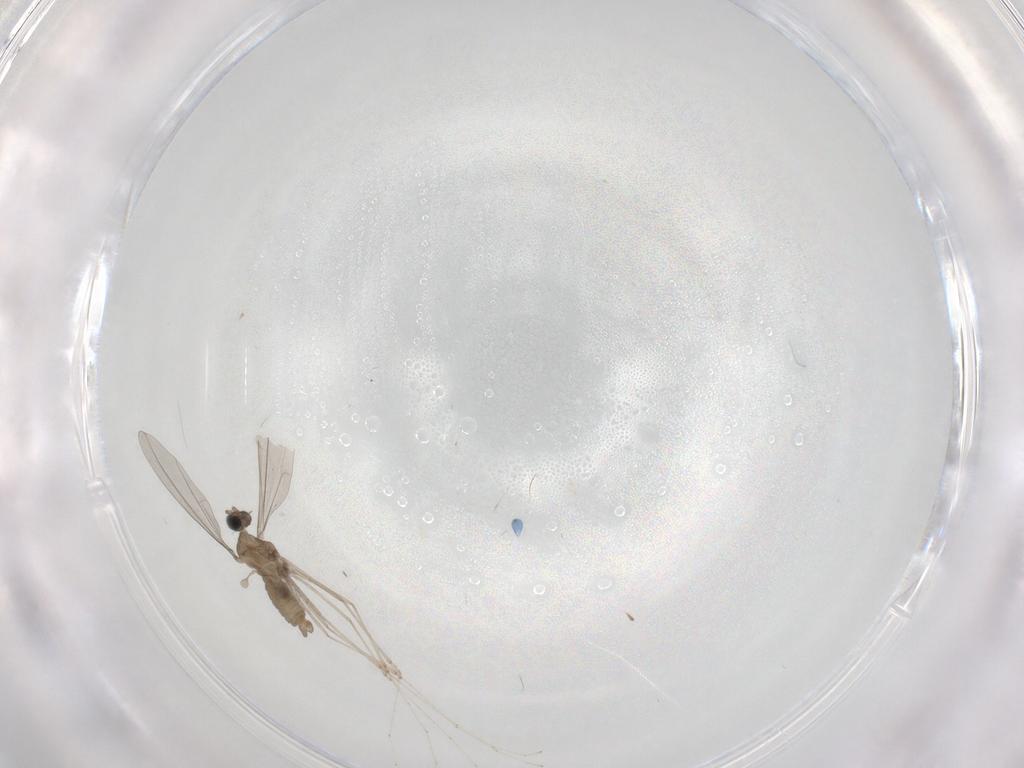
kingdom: Animalia
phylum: Arthropoda
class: Insecta
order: Diptera
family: Cecidomyiidae
